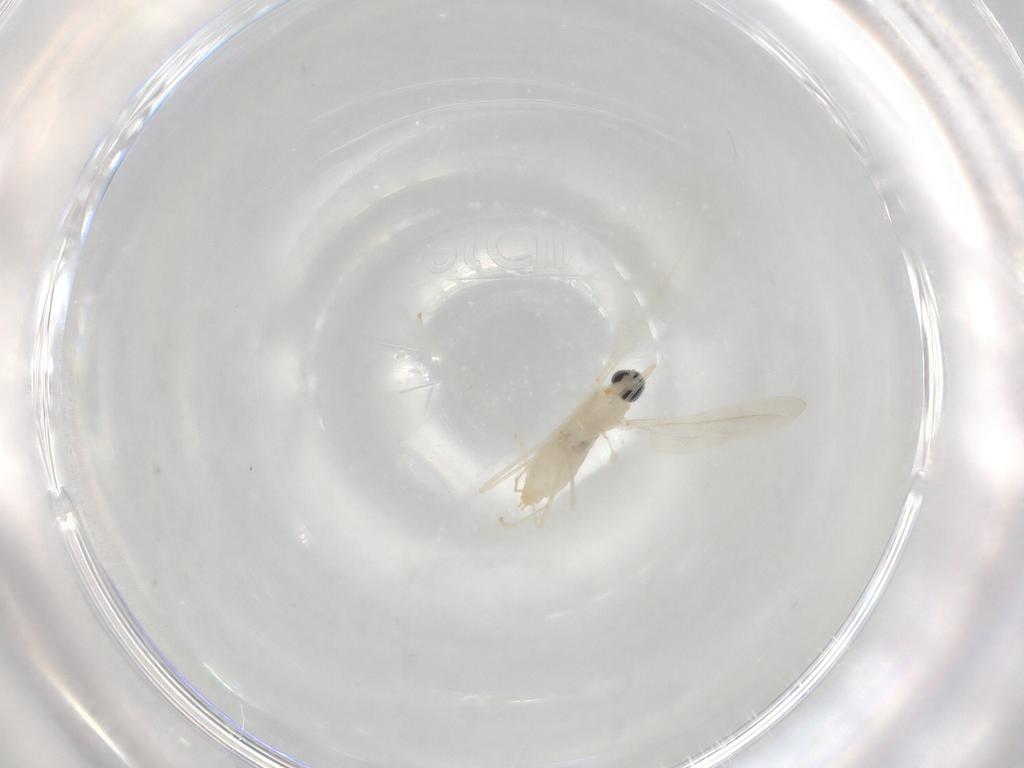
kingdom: Animalia
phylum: Arthropoda
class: Insecta
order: Diptera
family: Cecidomyiidae
